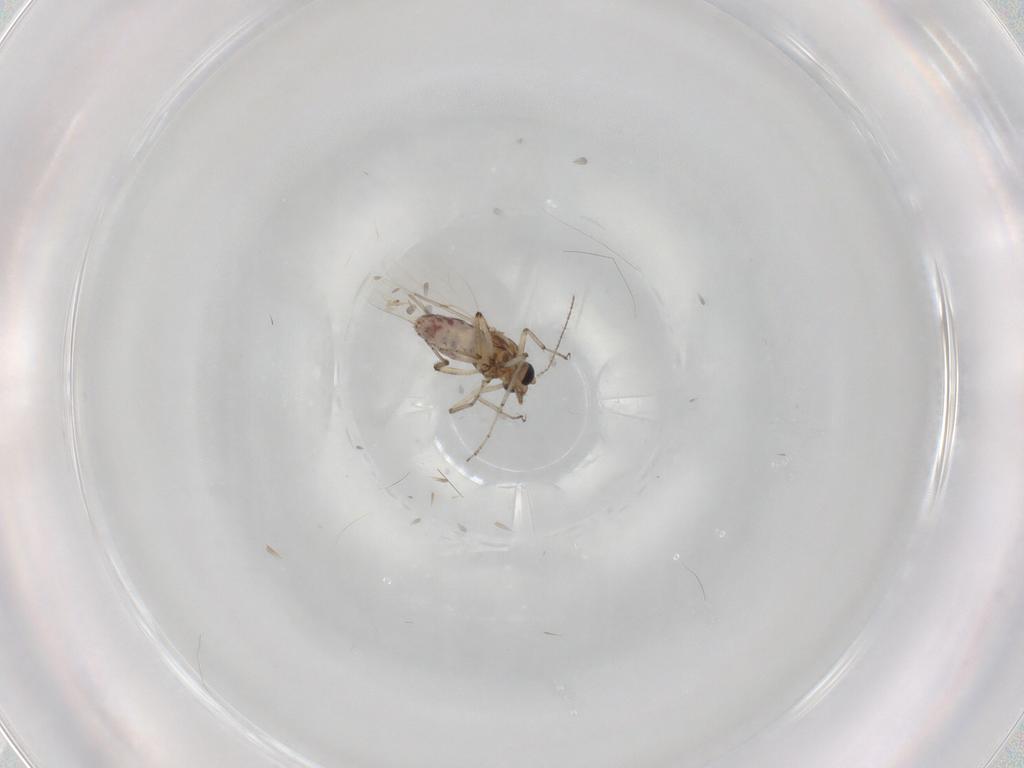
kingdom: Animalia
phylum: Arthropoda
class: Insecta
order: Diptera
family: Ceratopogonidae
